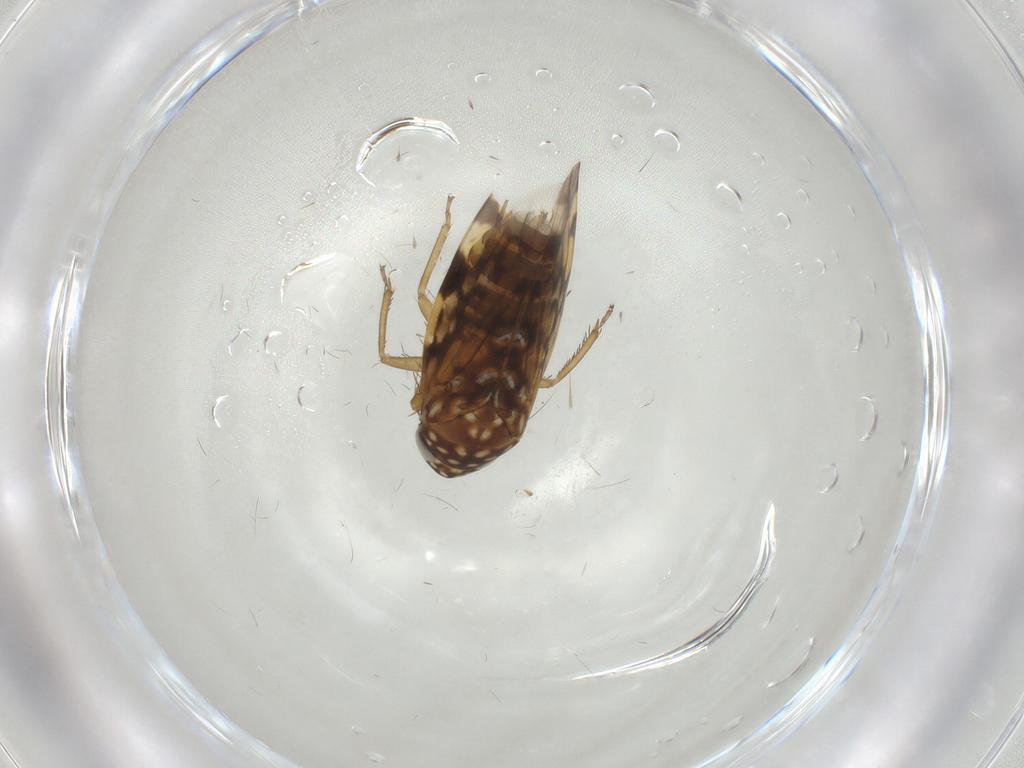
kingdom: Animalia
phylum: Arthropoda
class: Insecta
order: Hemiptera
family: Cicadellidae
